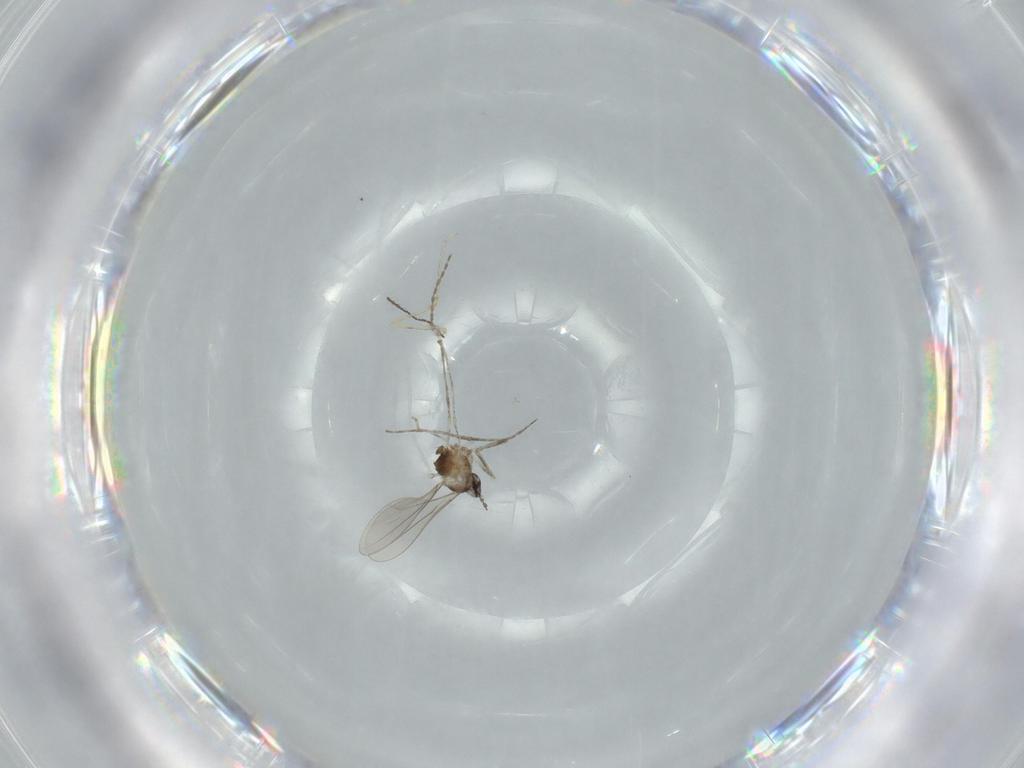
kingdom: Animalia
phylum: Arthropoda
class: Insecta
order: Diptera
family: Cecidomyiidae
